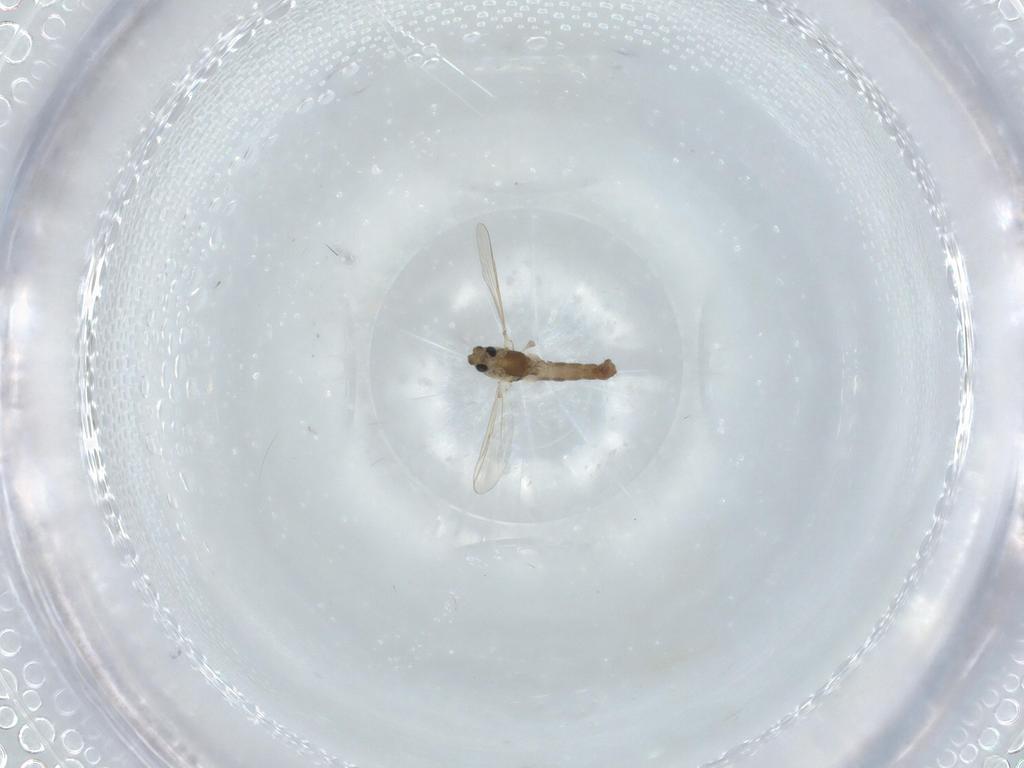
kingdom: Animalia
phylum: Arthropoda
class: Insecta
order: Diptera
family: Chironomidae
